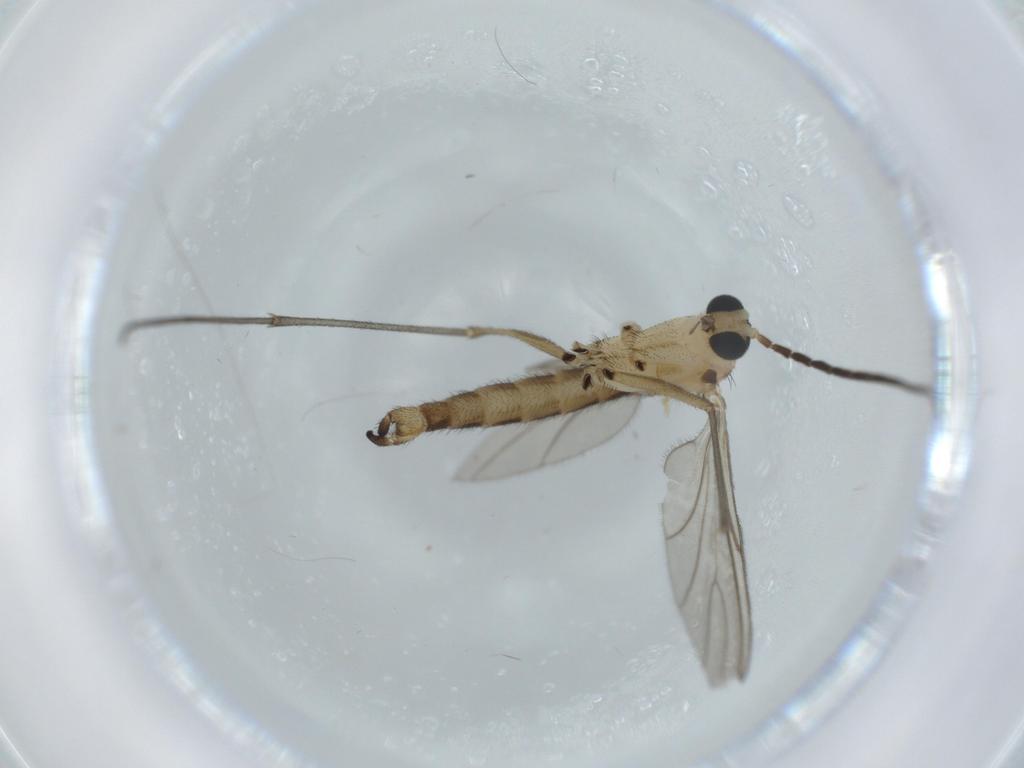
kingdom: Animalia
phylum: Arthropoda
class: Insecta
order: Diptera
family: Sciaridae
